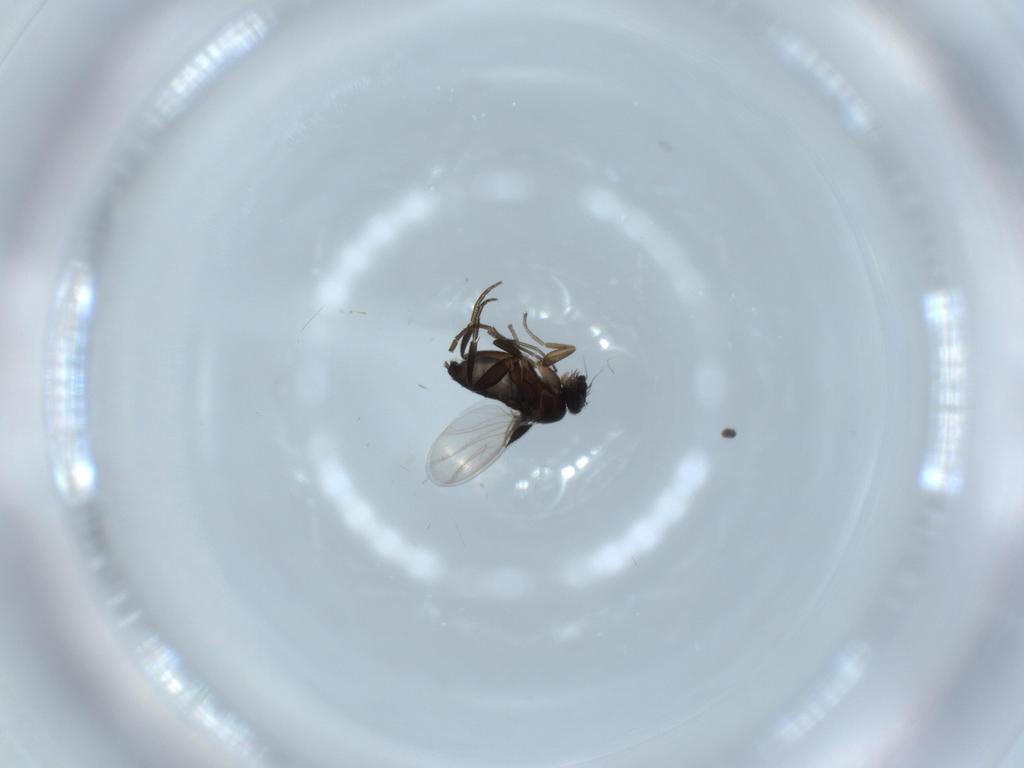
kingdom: Animalia
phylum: Arthropoda
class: Insecta
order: Diptera
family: Phoridae
